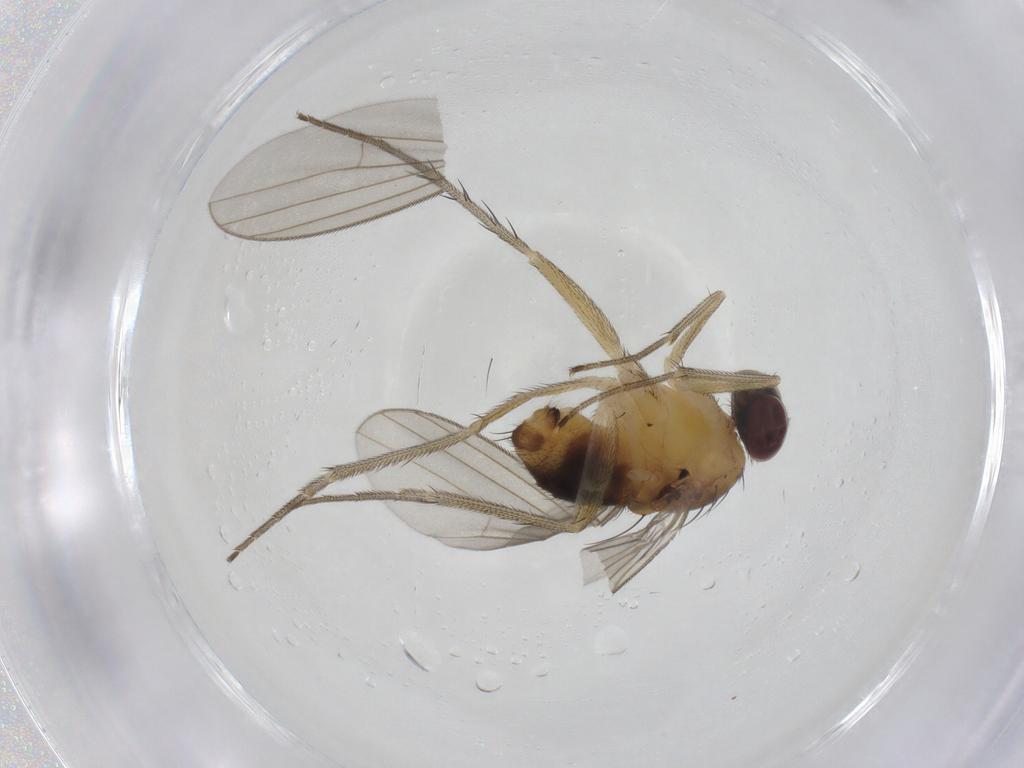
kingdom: Animalia
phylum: Arthropoda
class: Insecta
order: Diptera
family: Dolichopodidae
